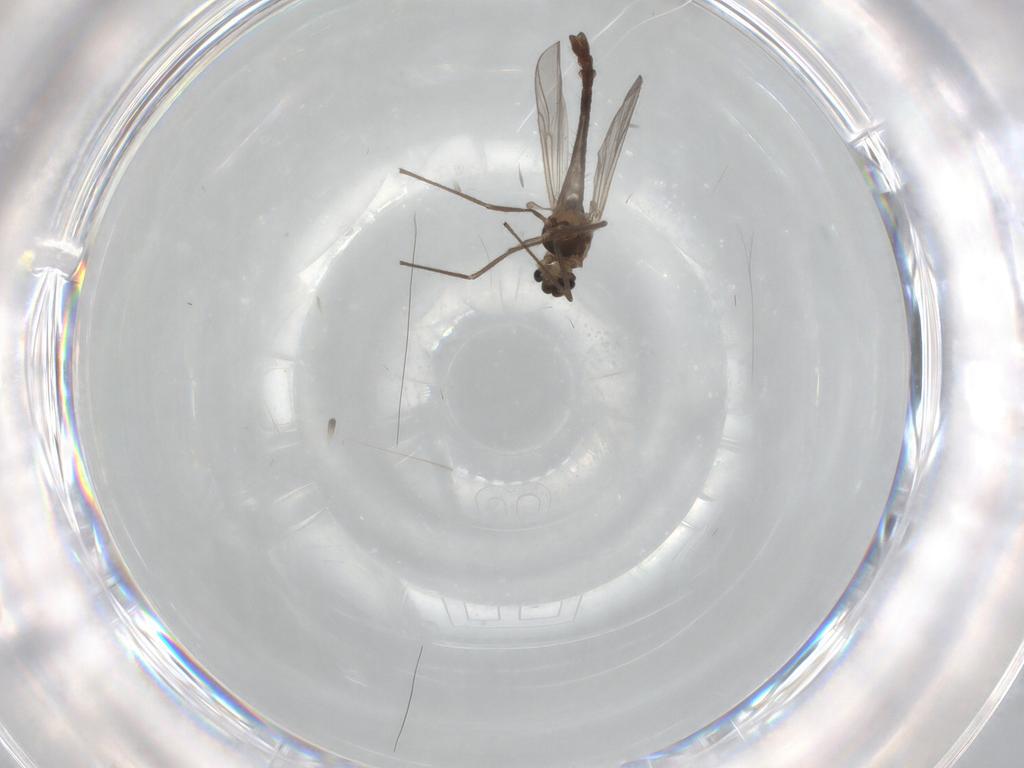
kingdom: Animalia
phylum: Arthropoda
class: Insecta
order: Diptera
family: Chironomidae
